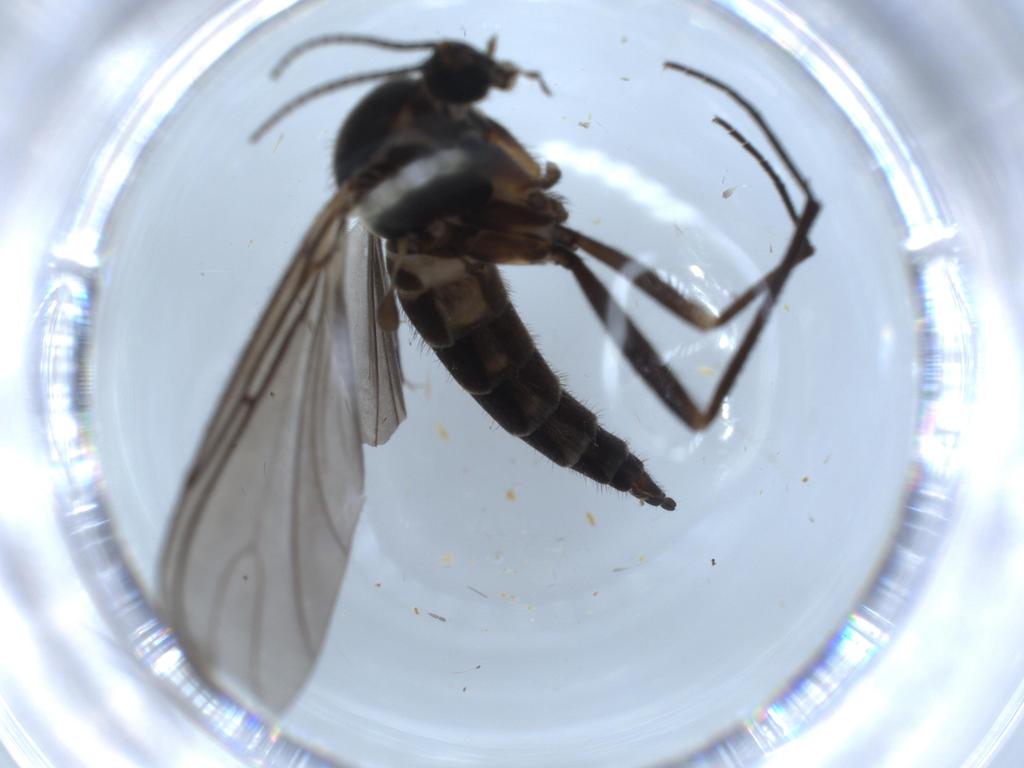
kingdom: Animalia
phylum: Arthropoda
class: Insecta
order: Diptera
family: Sciaridae
